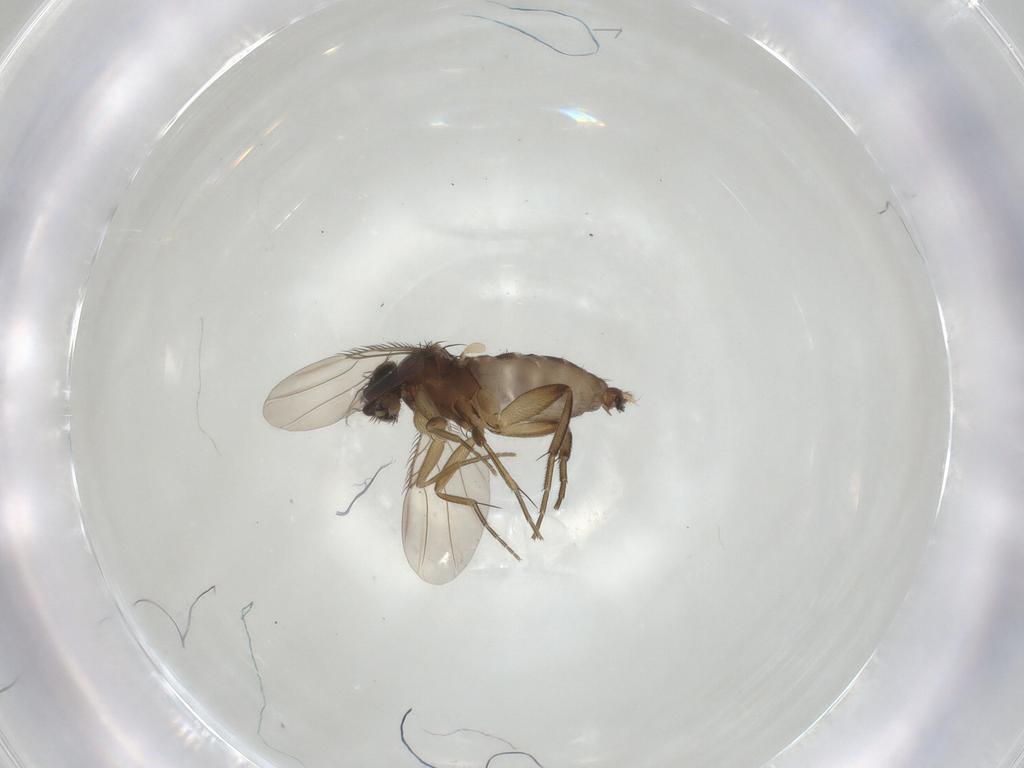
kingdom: Animalia
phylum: Arthropoda
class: Insecta
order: Diptera
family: Phoridae
